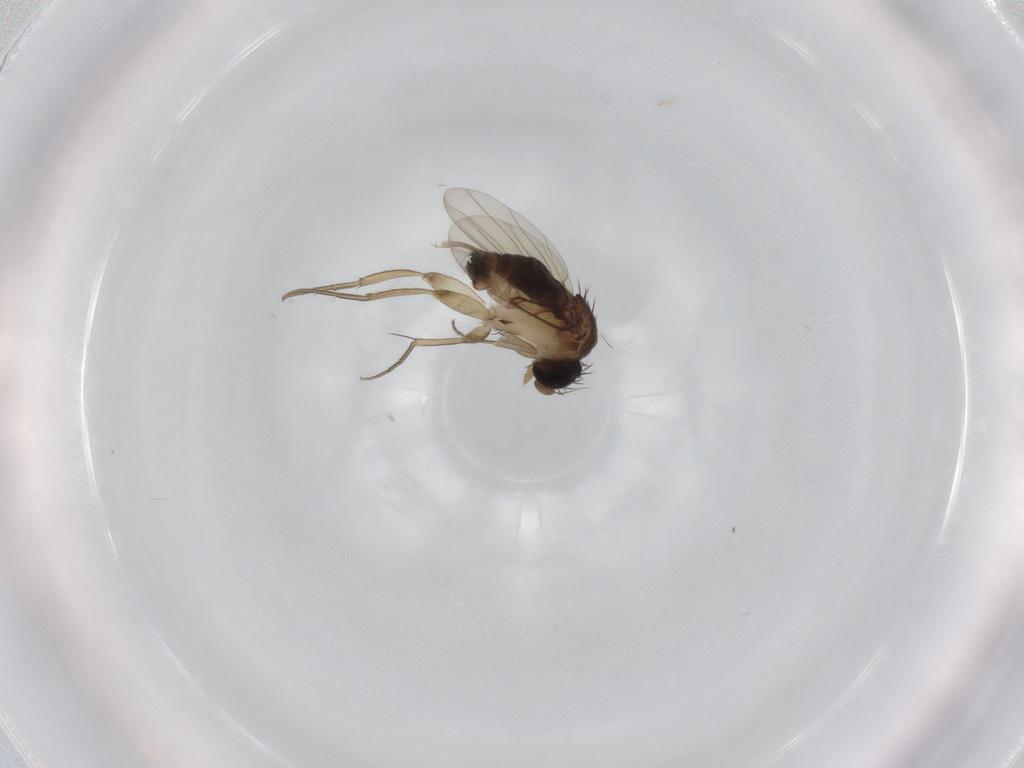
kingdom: Animalia
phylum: Arthropoda
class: Insecta
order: Diptera
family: Phoridae
